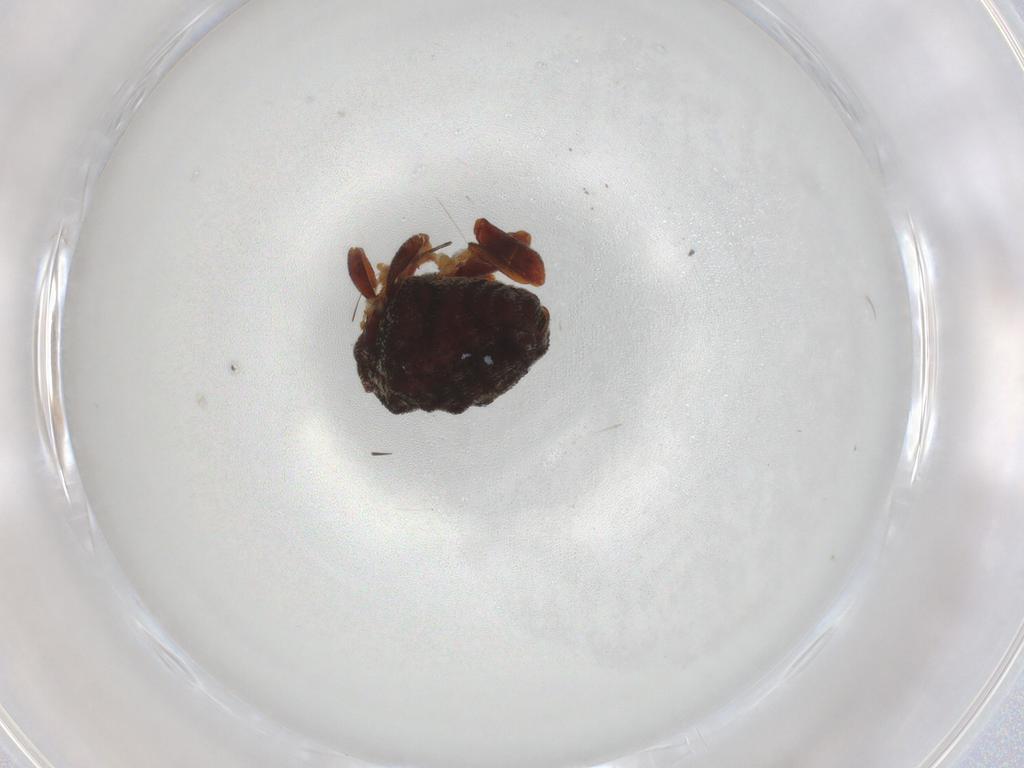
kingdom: Animalia
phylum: Arthropoda
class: Insecta
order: Coleoptera
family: Curculionidae
